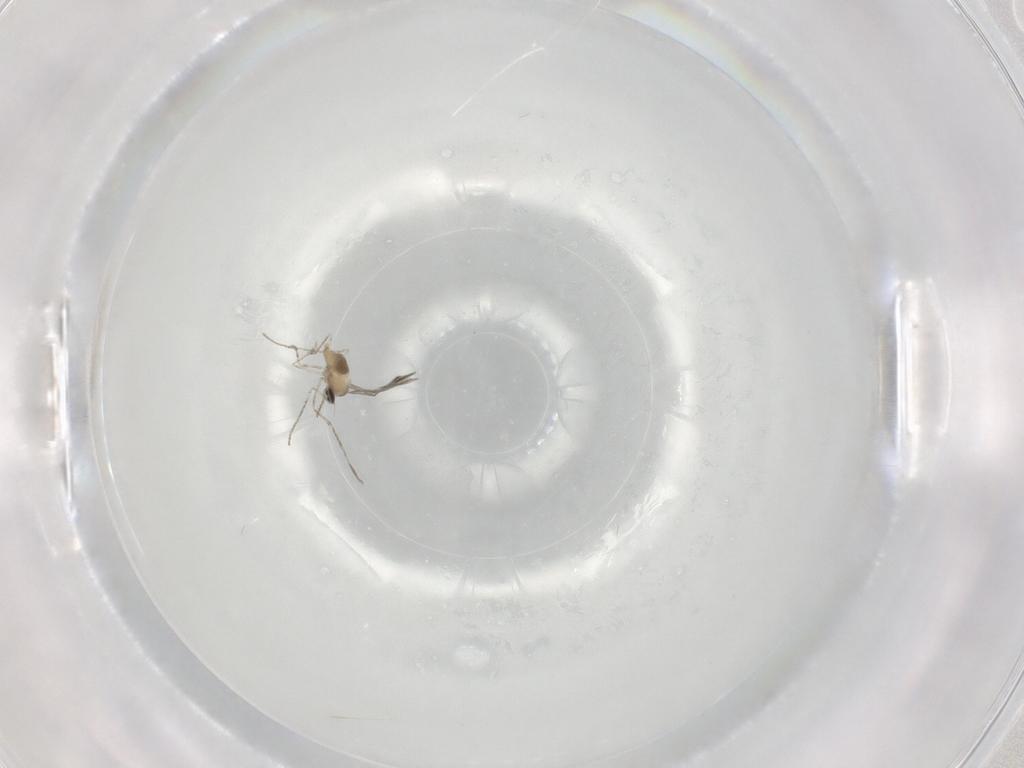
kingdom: Animalia
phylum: Arthropoda
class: Insecta
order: Diptera
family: Cecidomyiidae
